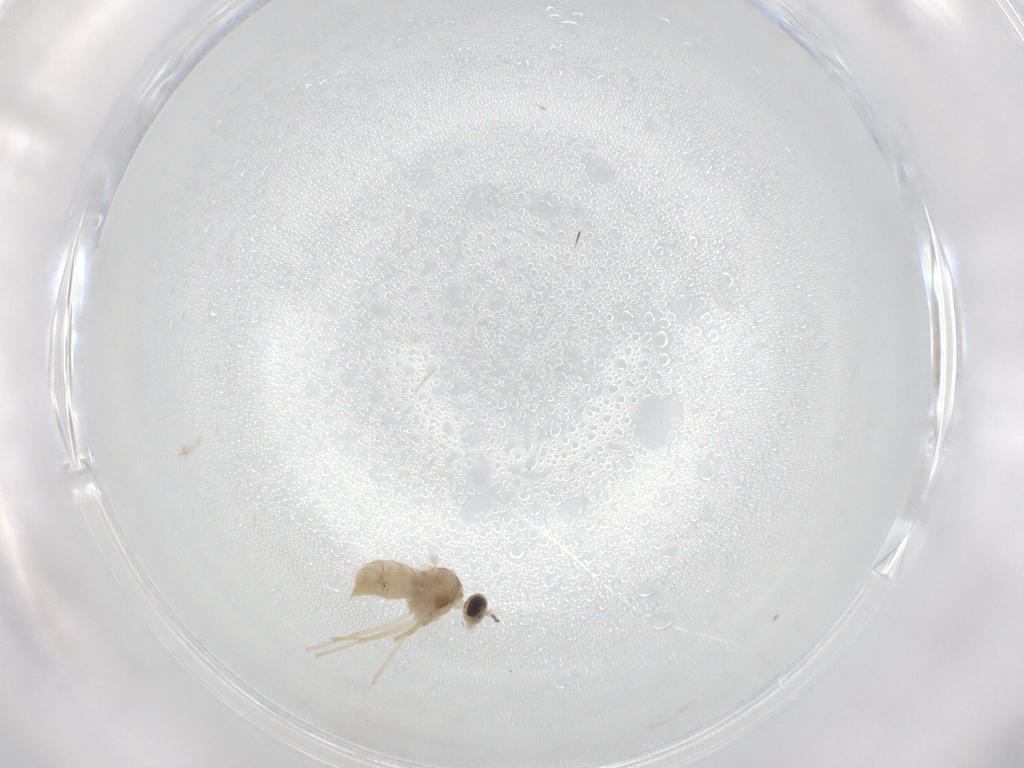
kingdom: Animalia
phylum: Arthropoda
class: Insecta
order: Diptera
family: Cecidomyiidae
